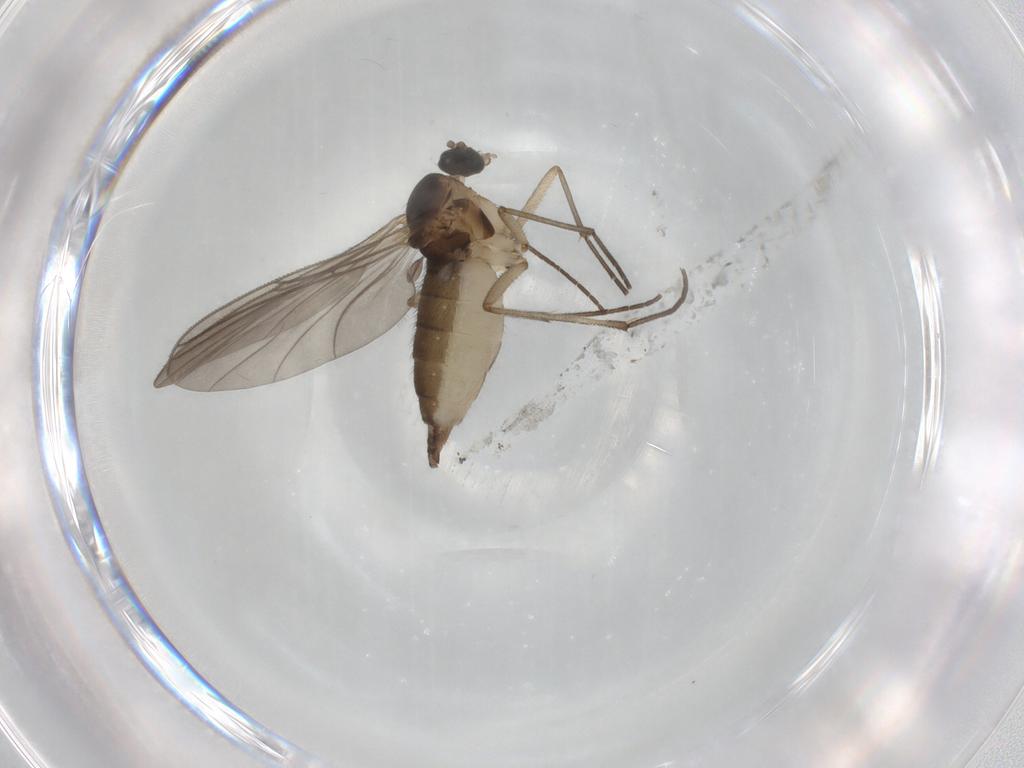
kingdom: Animalia
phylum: Arthropoda
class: Insecta
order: Diptera
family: Sciaridae
